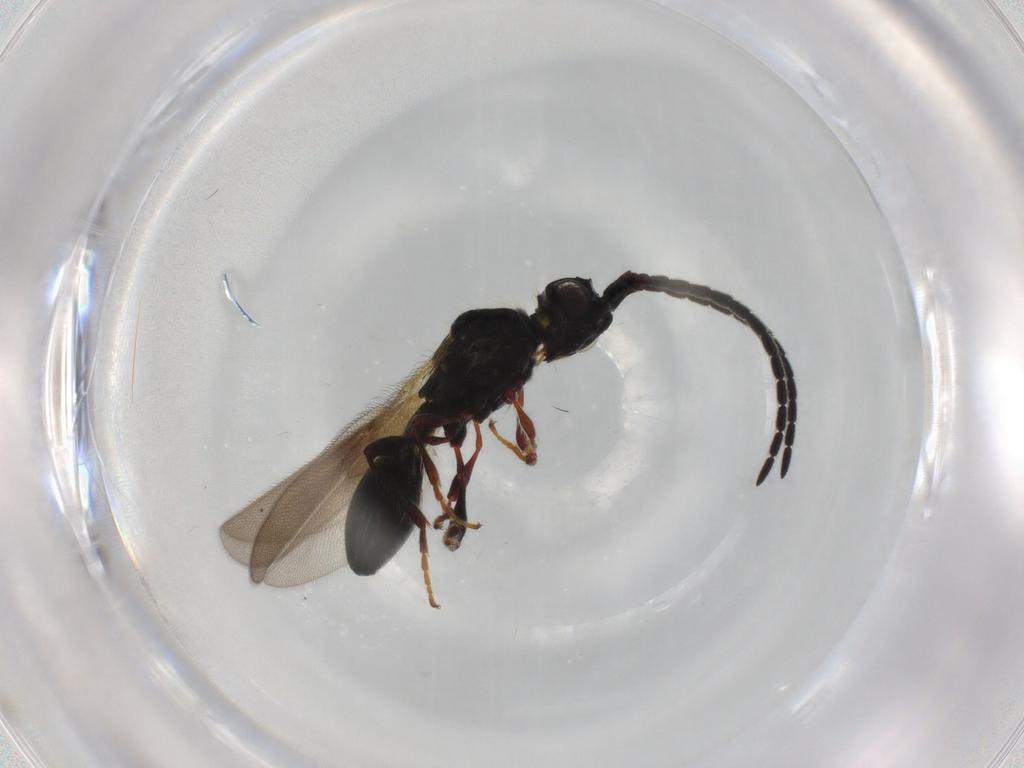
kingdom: Animalia
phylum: Arthropoda
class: Insecta
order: Hymenoptera
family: Diapriidae
